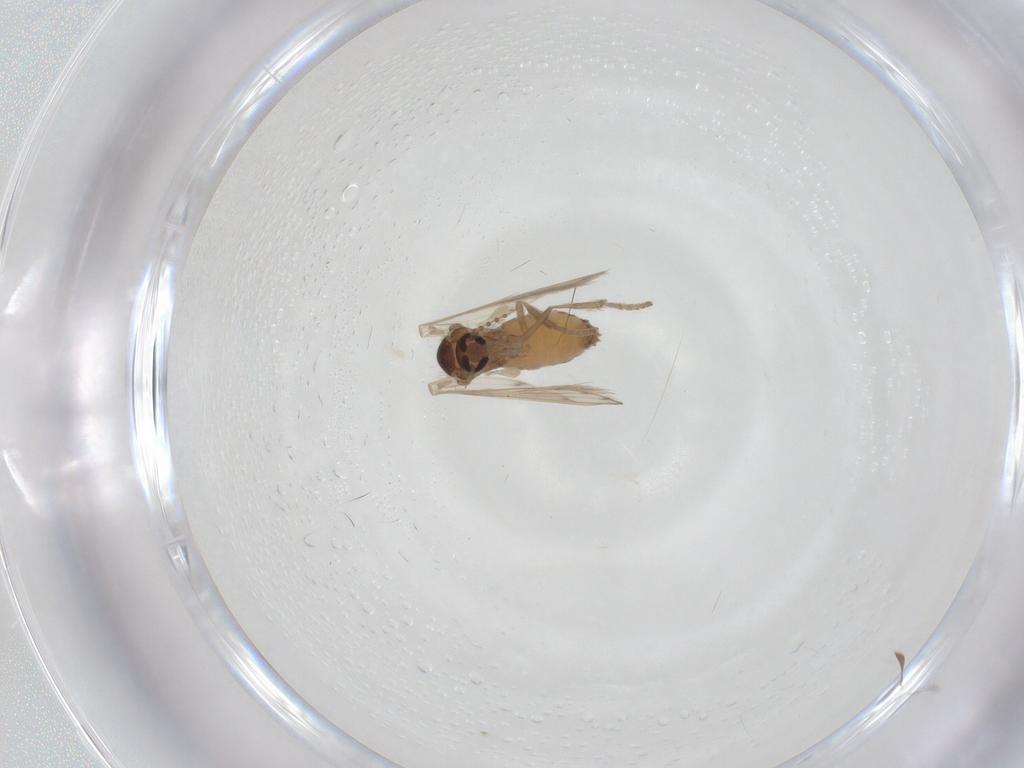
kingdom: Animalia
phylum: Arthropoda
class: Insecta
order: Diptera
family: Psychodidae
